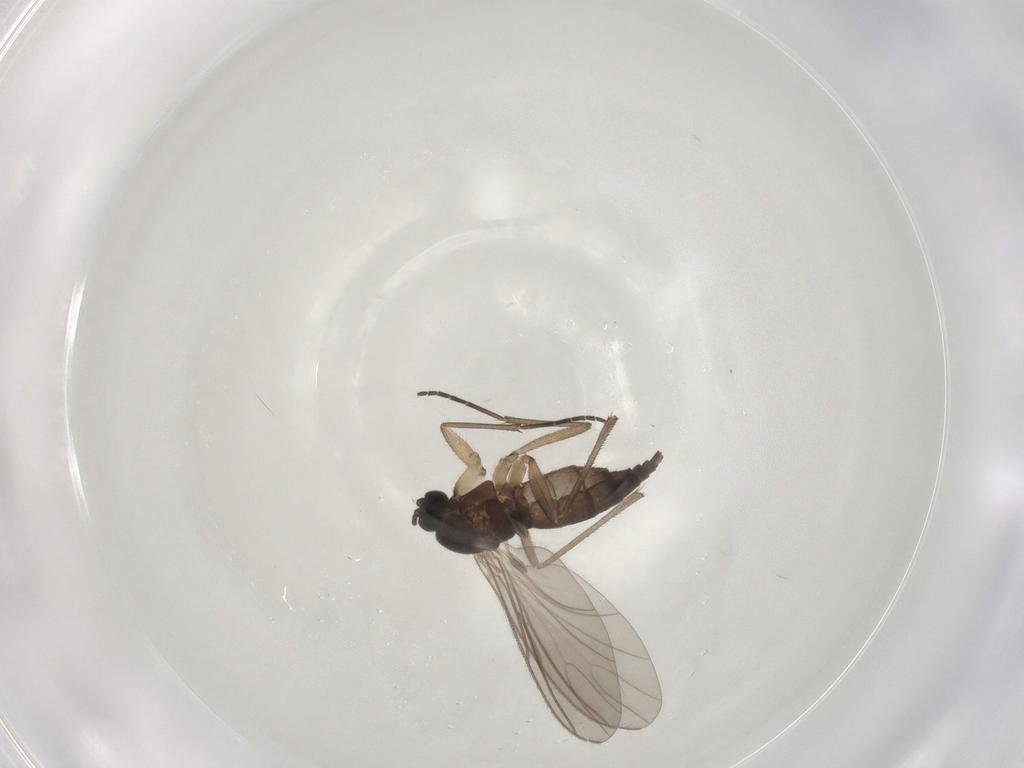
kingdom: Animalia
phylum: Arthropoda
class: Insecta
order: Diptera
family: Sciaridae
